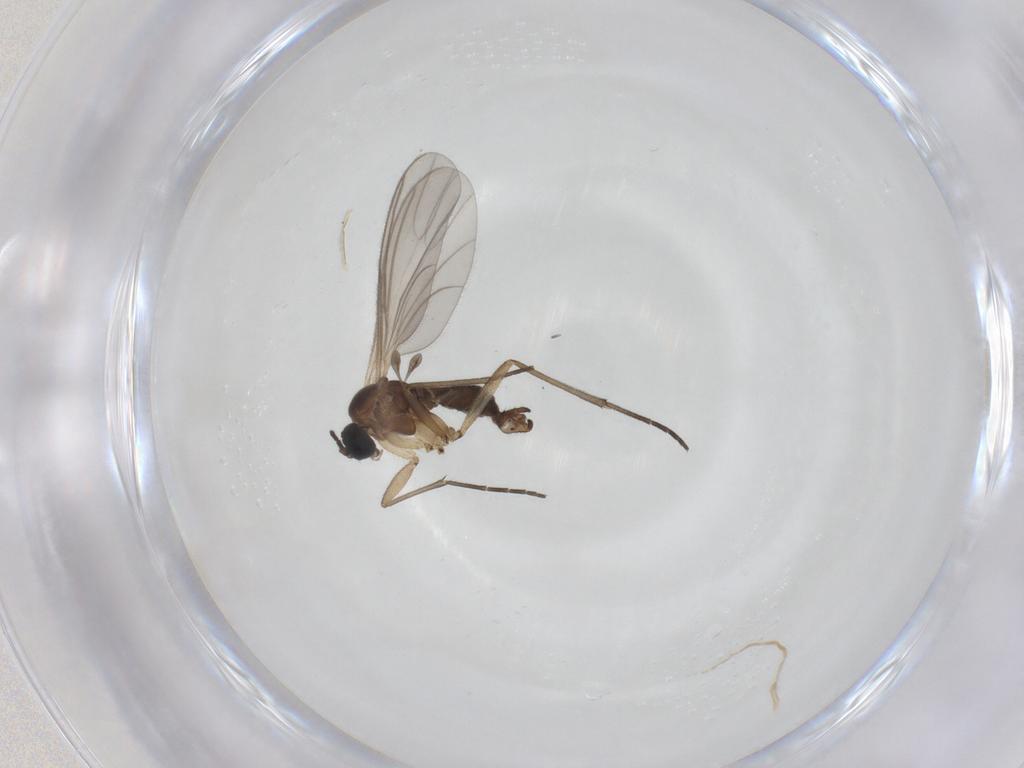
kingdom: Animalia
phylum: Arthropoda
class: Insecta
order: Diptera
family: Sciaridae
